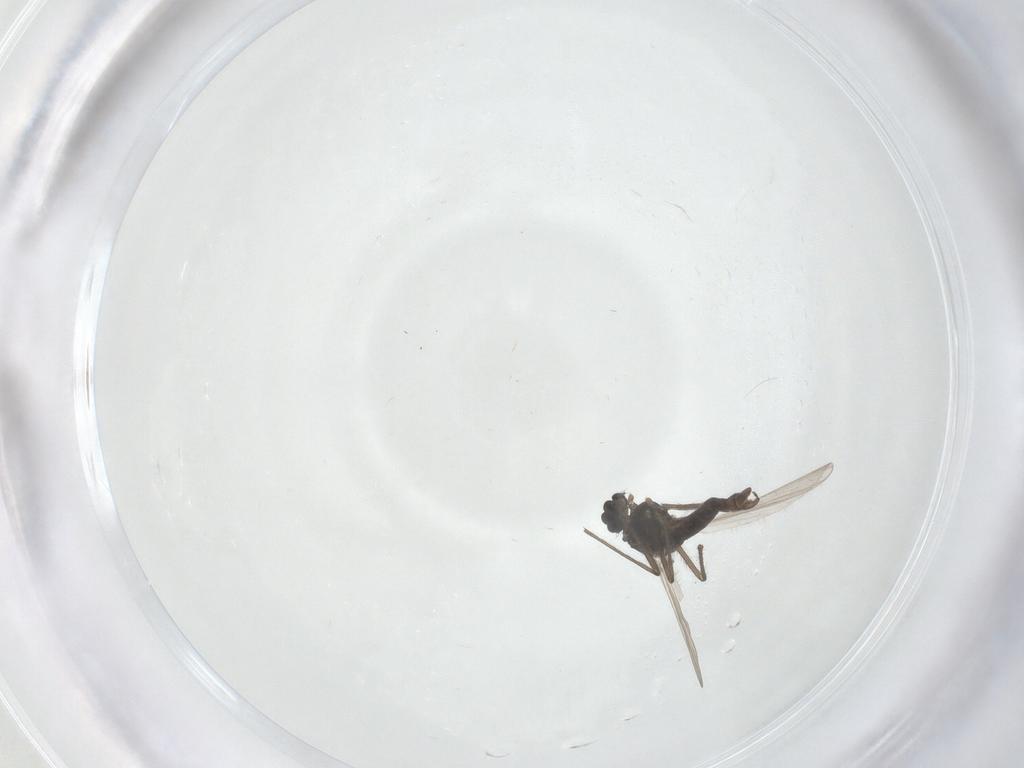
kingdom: Animalia
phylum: Arthropoda
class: Insecta
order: Diptera
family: Chironomidae
